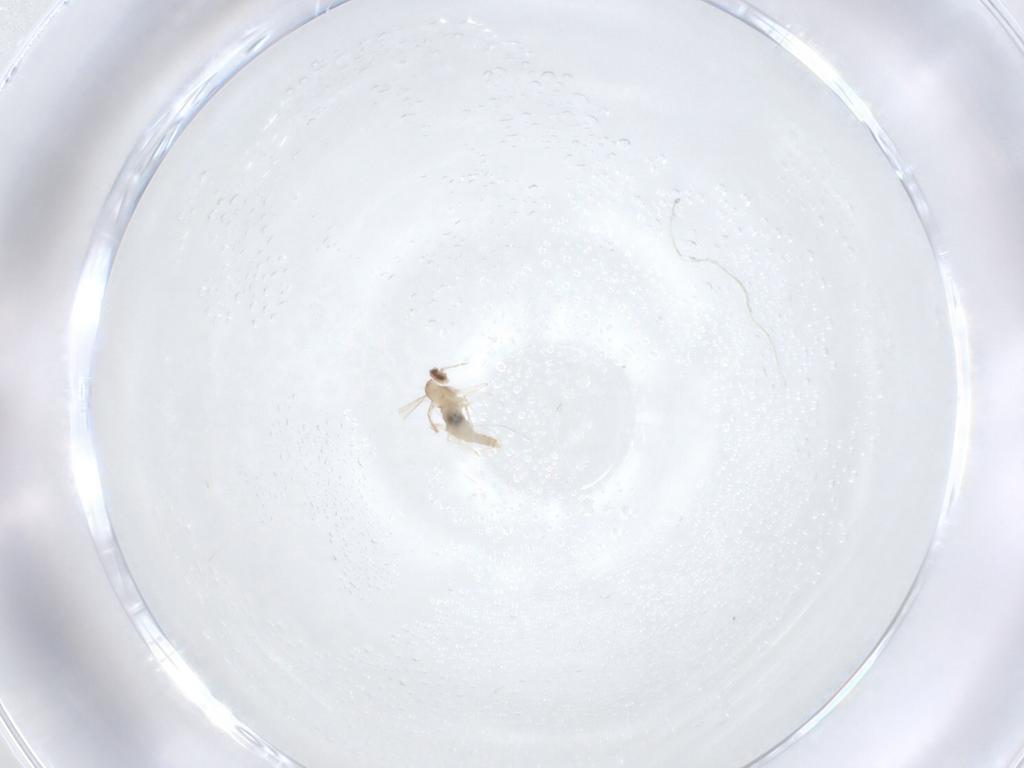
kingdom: Animalia
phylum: Arthropoda
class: Insecta
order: Diptera
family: Cecidomyiidae
